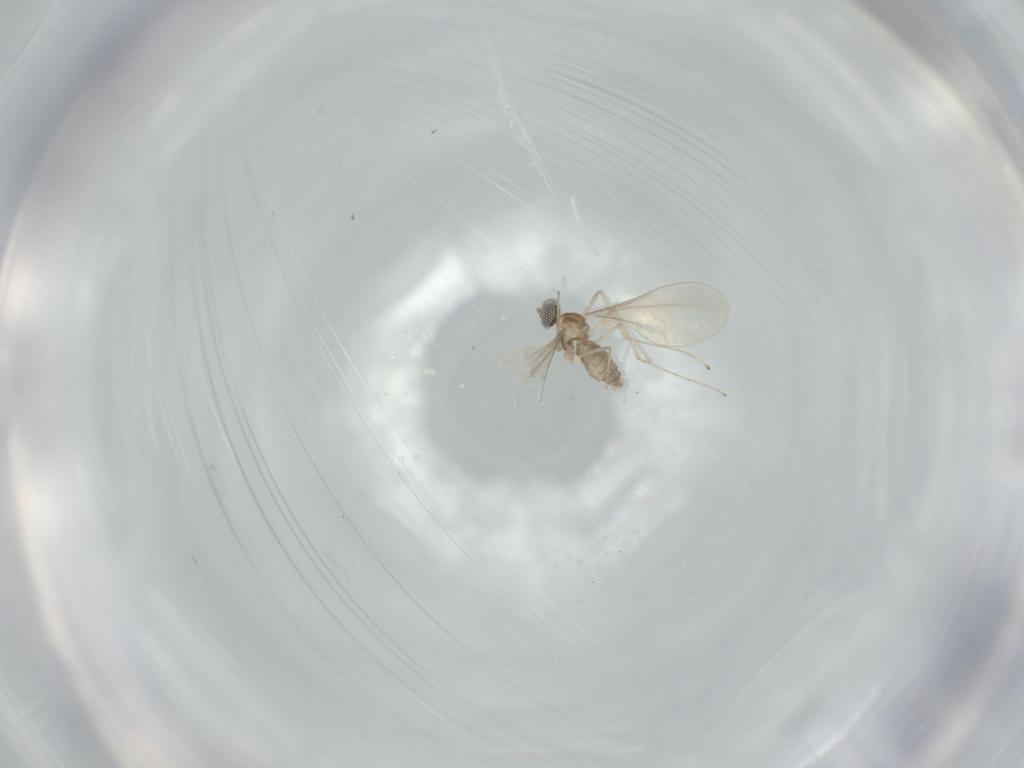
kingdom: Animalia
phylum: Arthropoda
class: Insecta
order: Diptera
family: Cecidomyiidae
